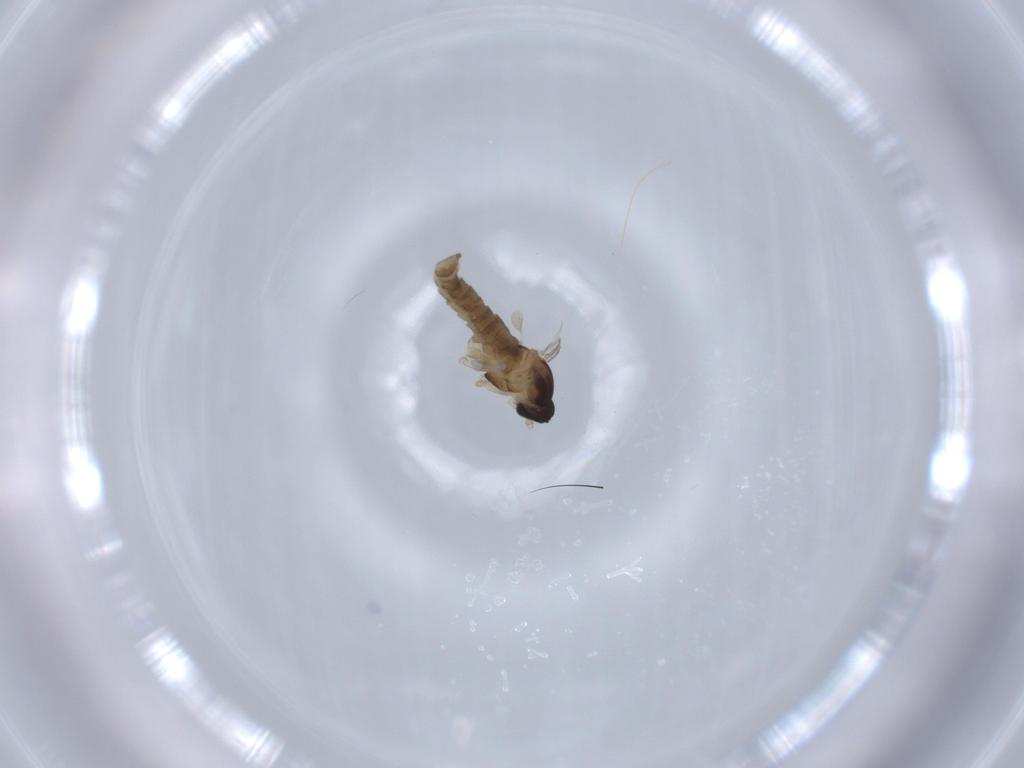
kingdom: Animalia
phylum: Arthropoda
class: Insecta
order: Diptera
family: Cecidomyiidae
